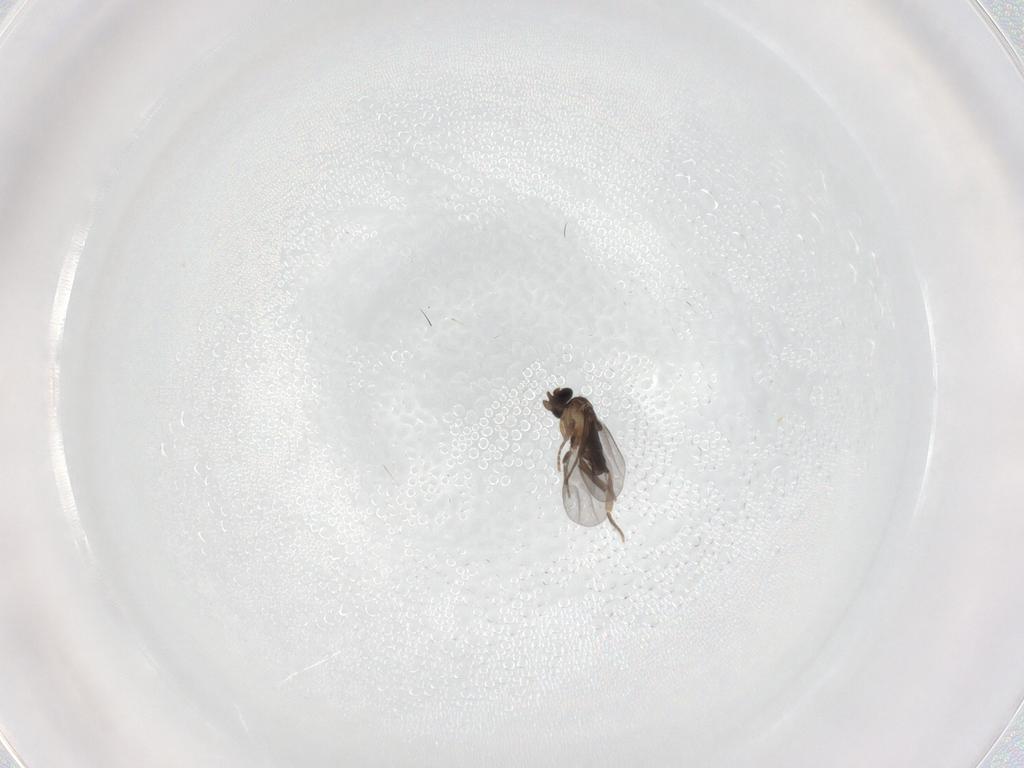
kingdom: Animalia
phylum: Arthropoda
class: Insecta
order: Diptera
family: Phoridae
